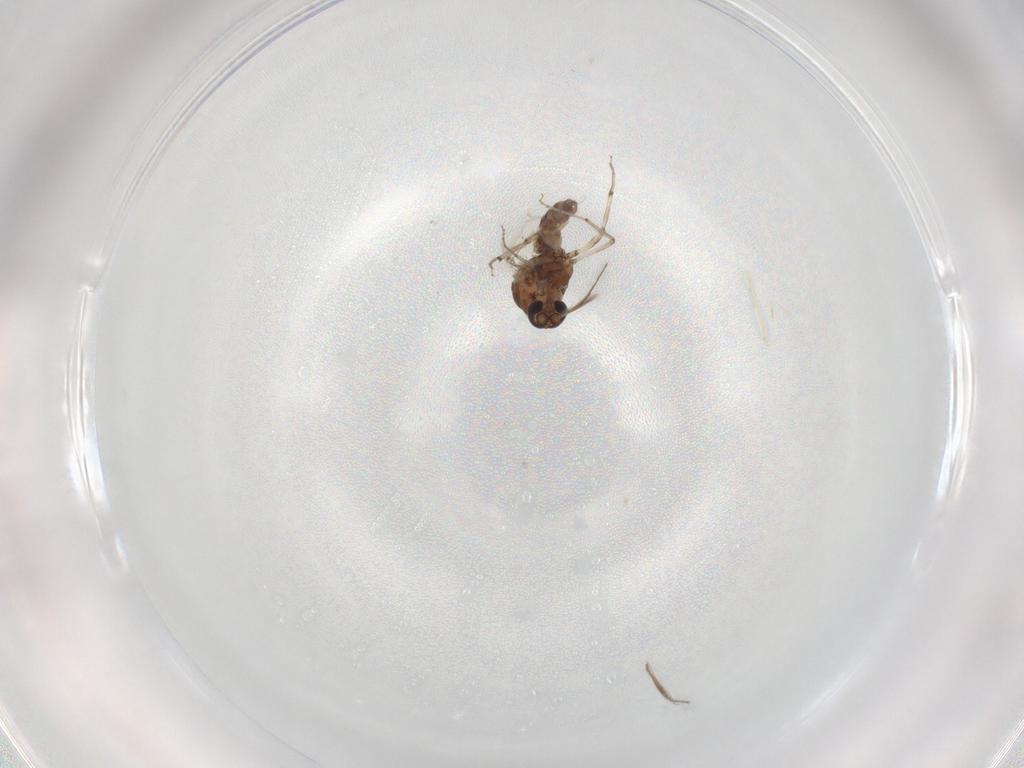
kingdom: Animalia
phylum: Arthropoda
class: Insecta
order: Diptera
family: Ceratopogonidae
